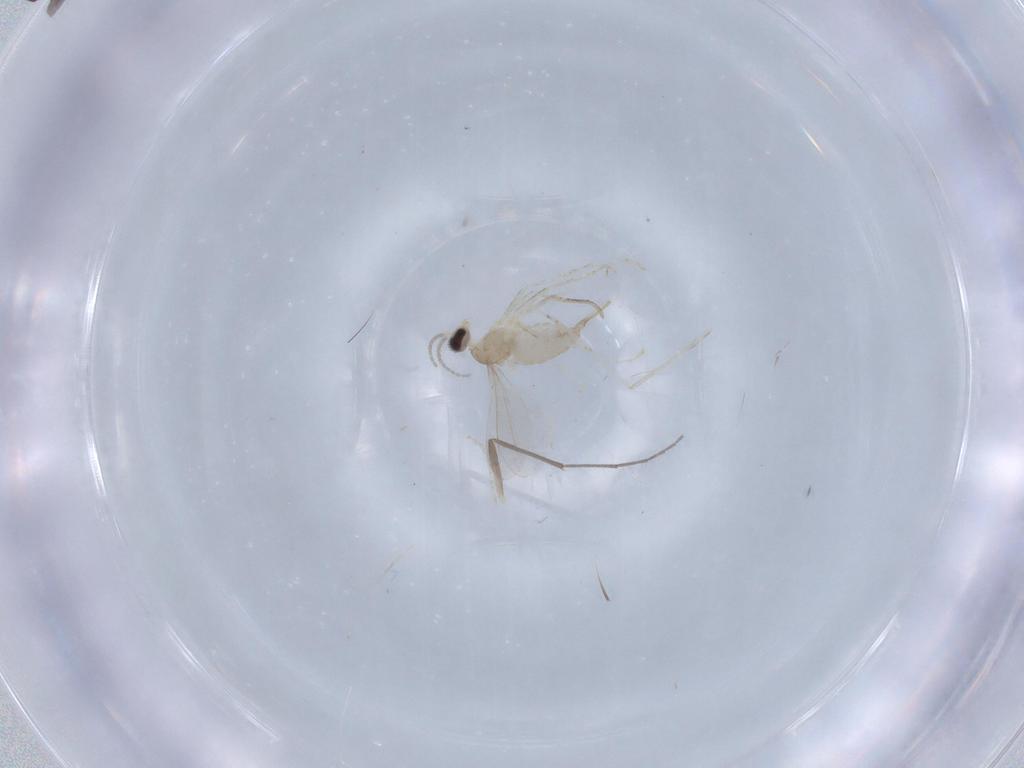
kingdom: Animalia
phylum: Arthropoda
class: Insecta
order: Diptera
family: Cecidomyiidae
